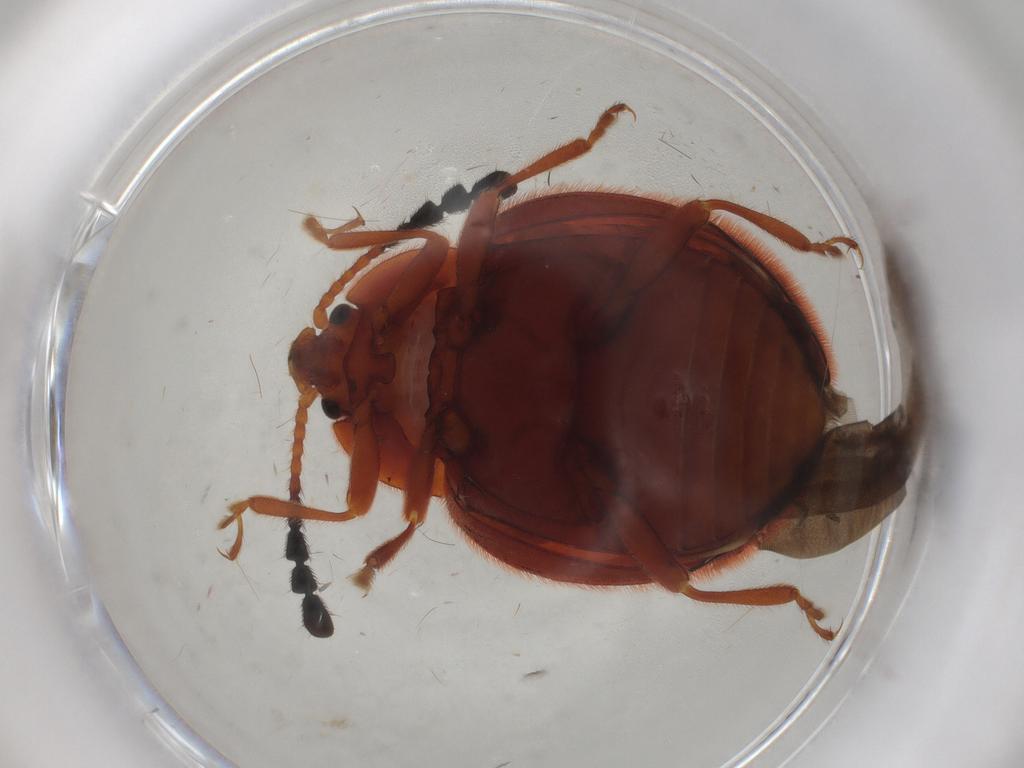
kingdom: Animalia
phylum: Arthropoda
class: Insecta
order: Coleoptera
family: Endomychidae
